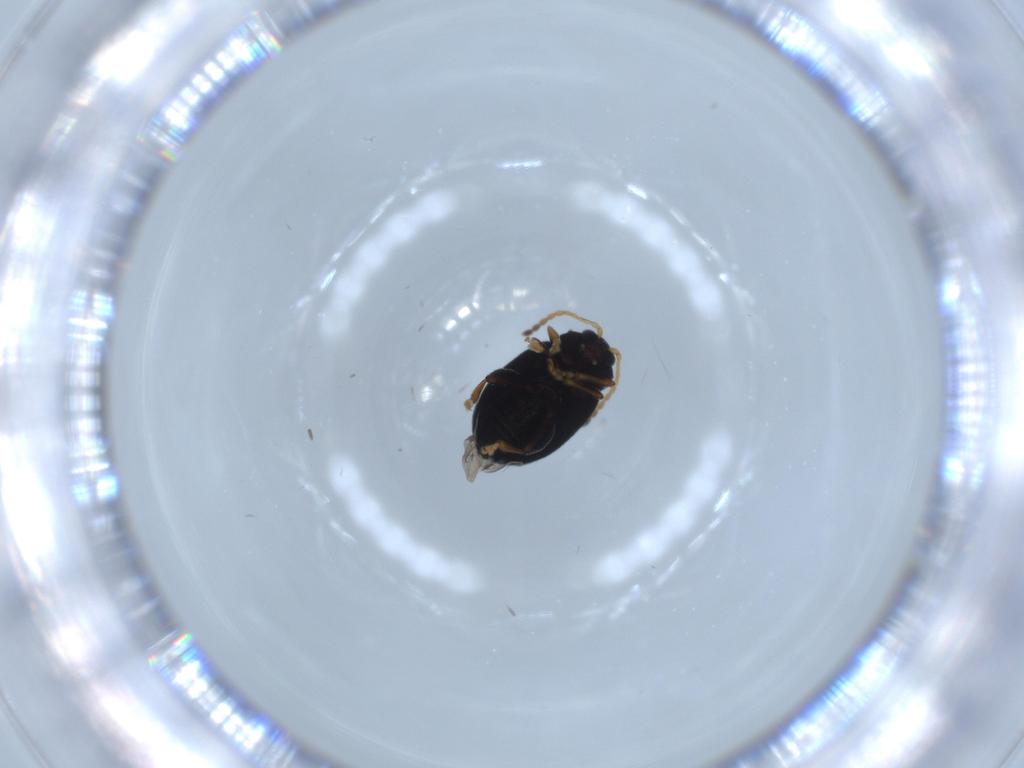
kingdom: Animalia
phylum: Arthropoda
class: Insecta
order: Coleoptera
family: Chrysomelidae
